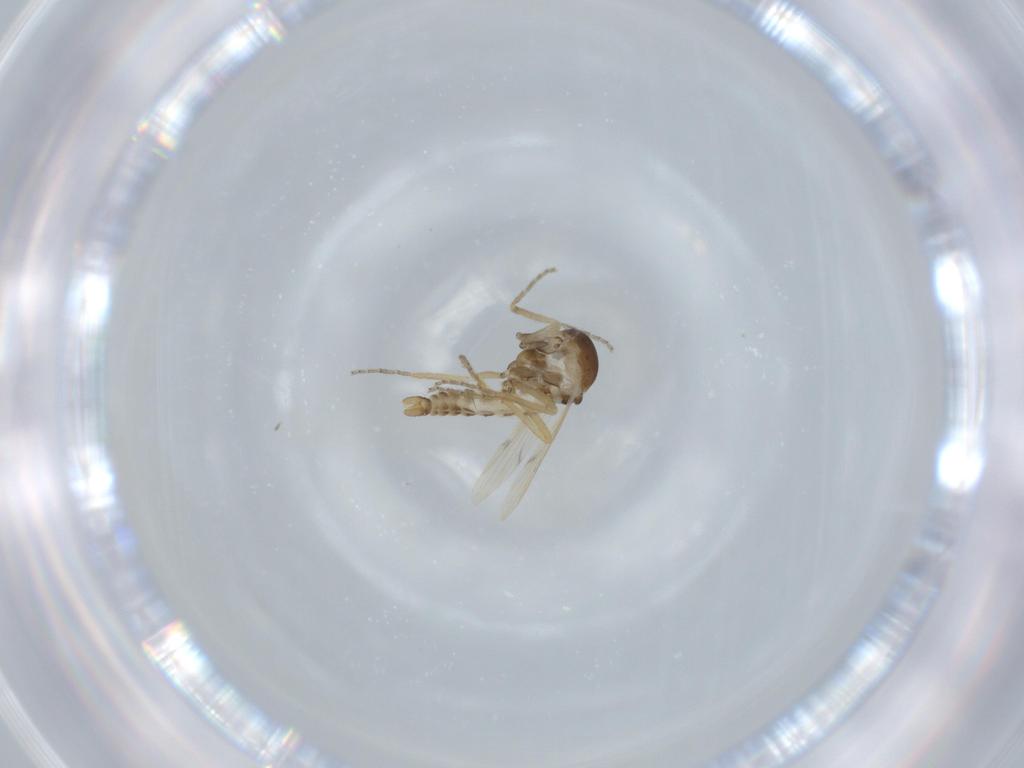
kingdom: Animalia
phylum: Arthropoda
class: Insecta
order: Diptera
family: Ceratopogonidae
